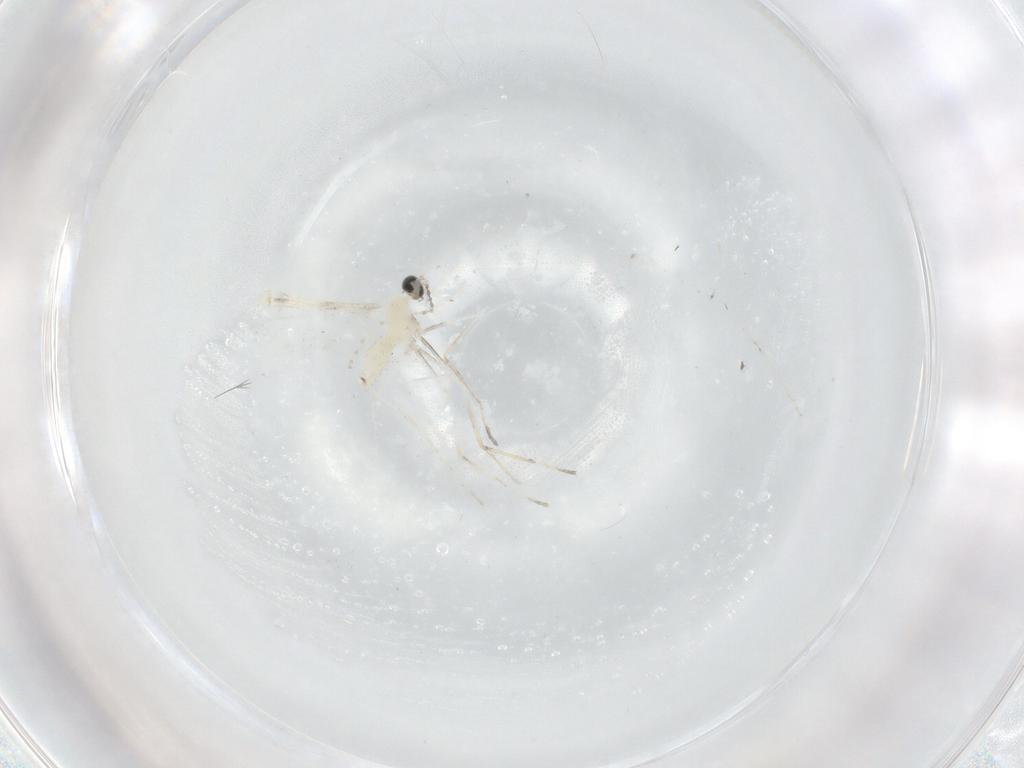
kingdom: Animalia
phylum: Arthropoda
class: Insecta
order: Diptera
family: Cecidomyiidae
